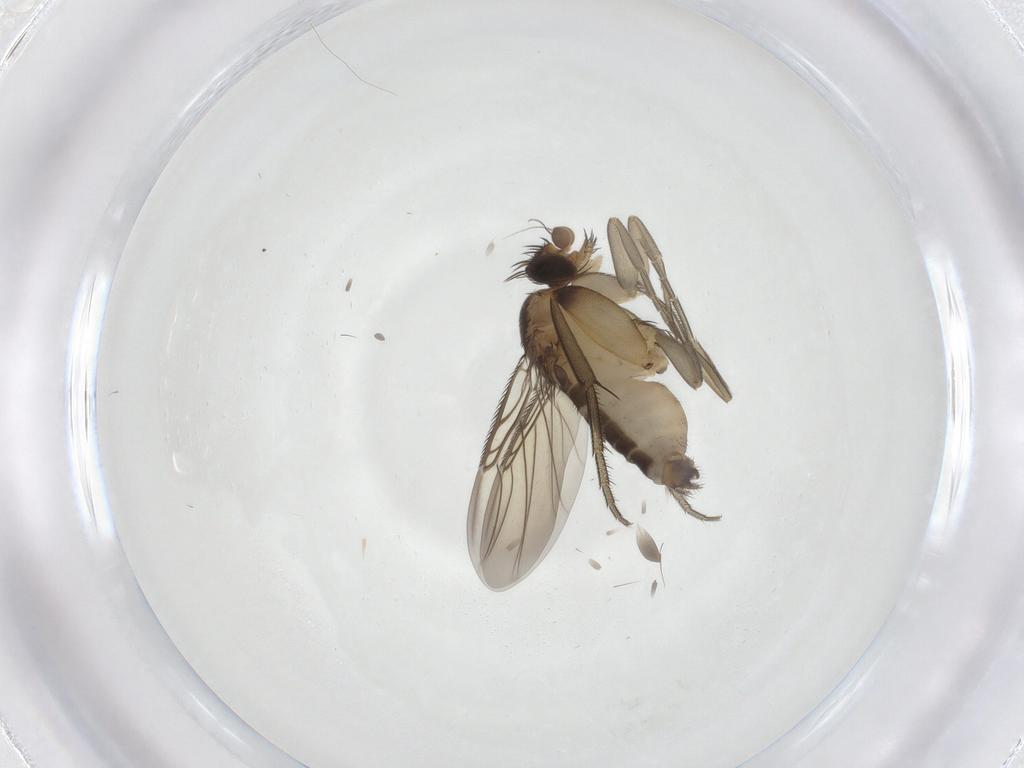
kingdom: Animalia
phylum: Arthropoda
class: Insecta
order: Diptera
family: Phoridae
